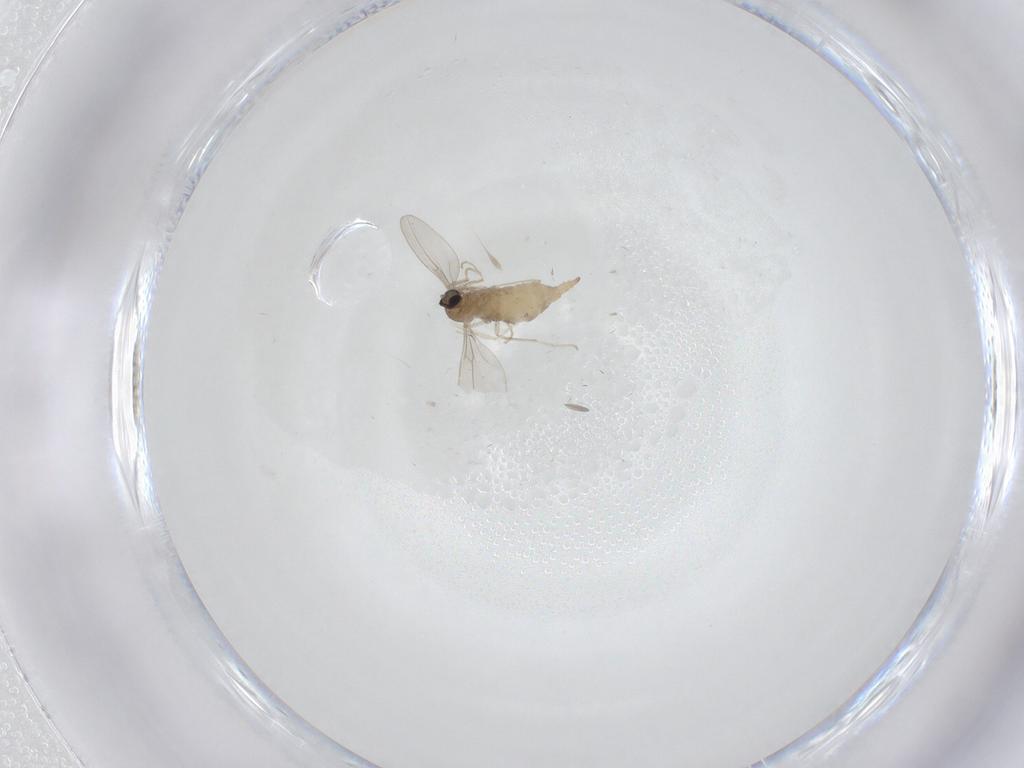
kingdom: Animalia
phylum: Arthropoda
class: Insecta
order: Diptera
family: Cecidomyiidae
